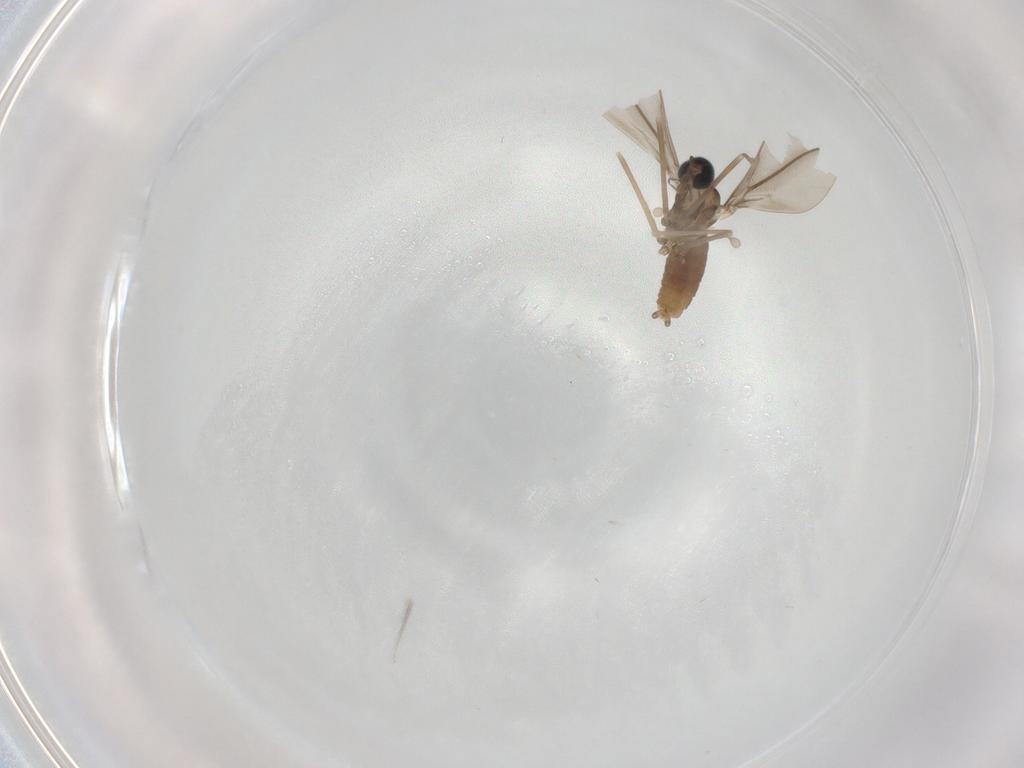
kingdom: Animalia
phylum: Arthropoda
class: Insecta
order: Diptera
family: Cecidomyiidae
